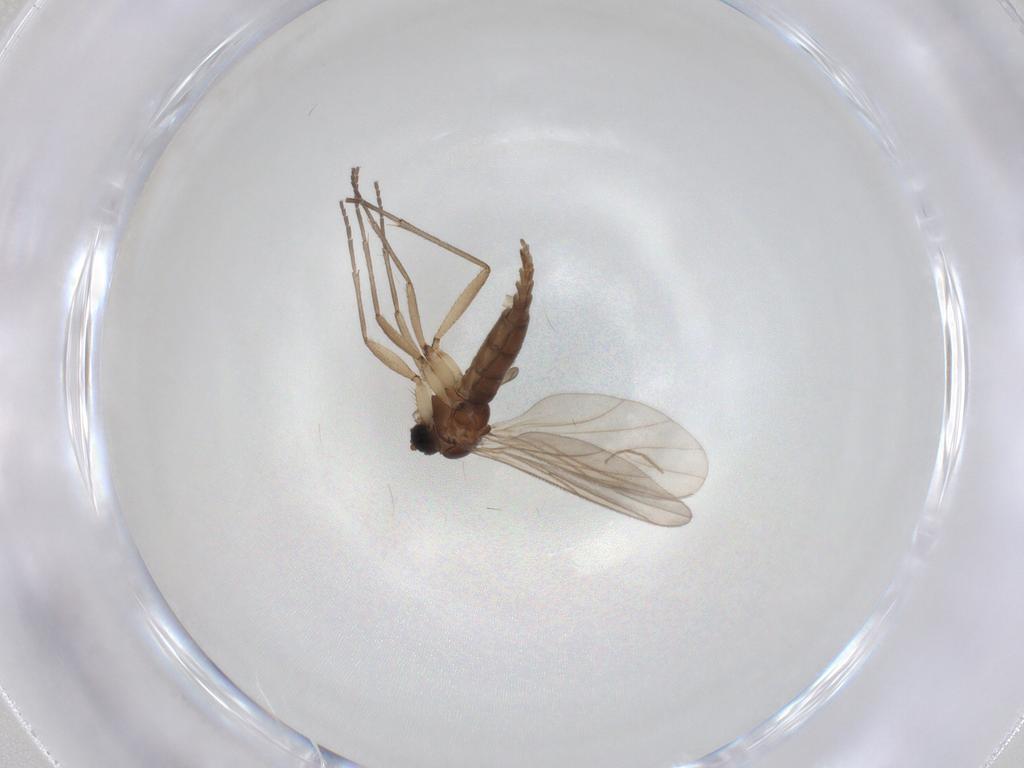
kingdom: Animalia
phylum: Arthropoda
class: Insecta
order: Diptera
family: Sciaridae
